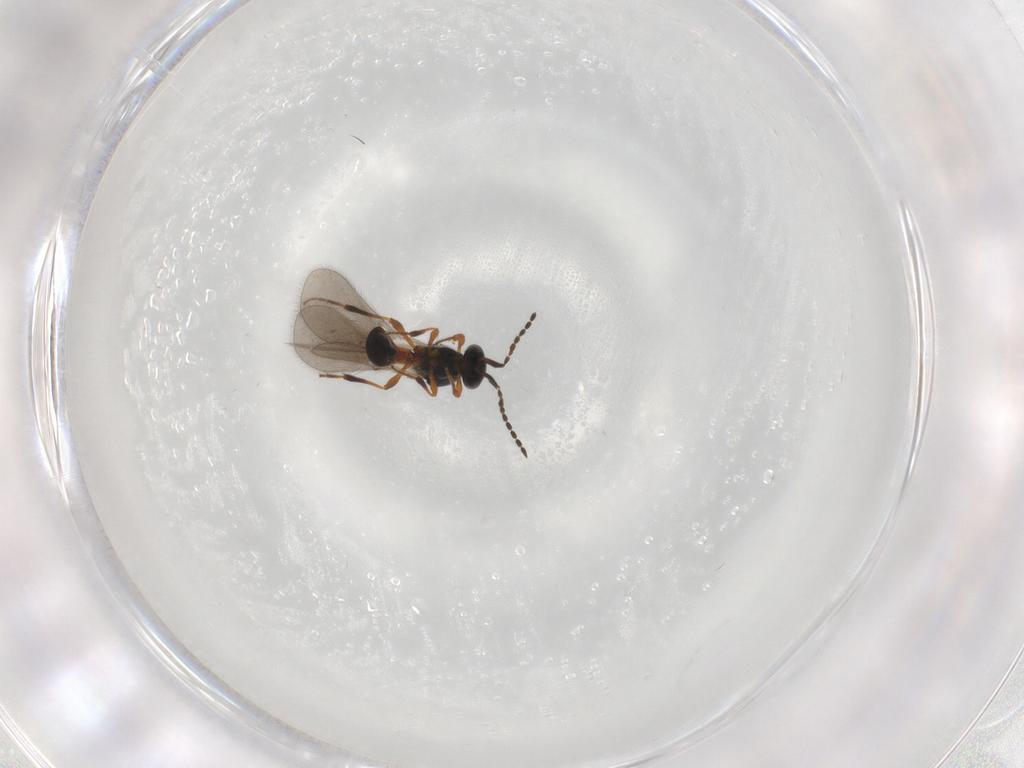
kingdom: Animalia
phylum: Arthropoda
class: Insecta
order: Hymenoptera
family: Platygastridae
